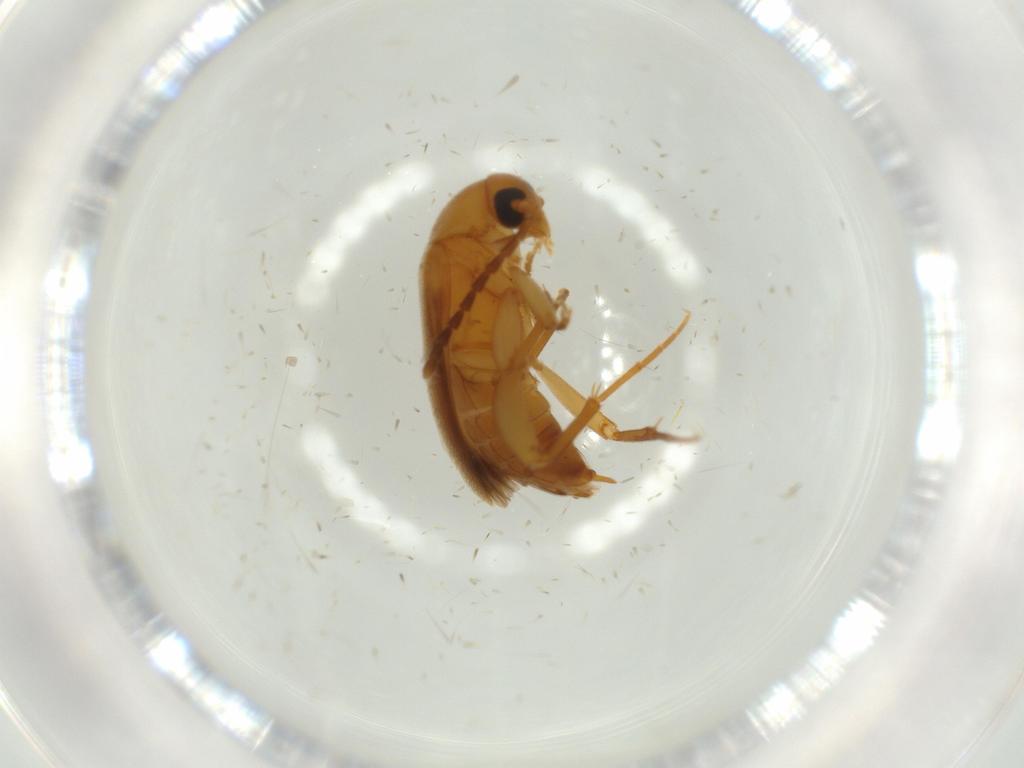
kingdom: Animalia
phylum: Arthropoda
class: Insecta
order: Coleoptera
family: Scraptiidae
